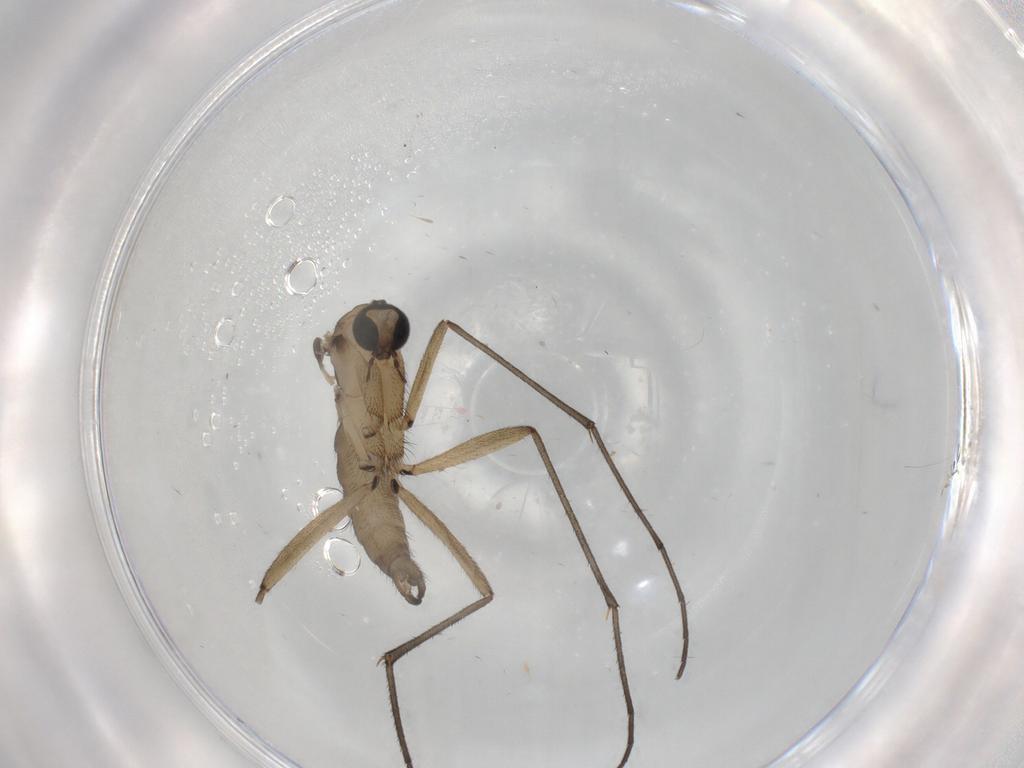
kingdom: Animalia
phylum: Arthropoda
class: Insecta
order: Diptera
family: Sciaridae
